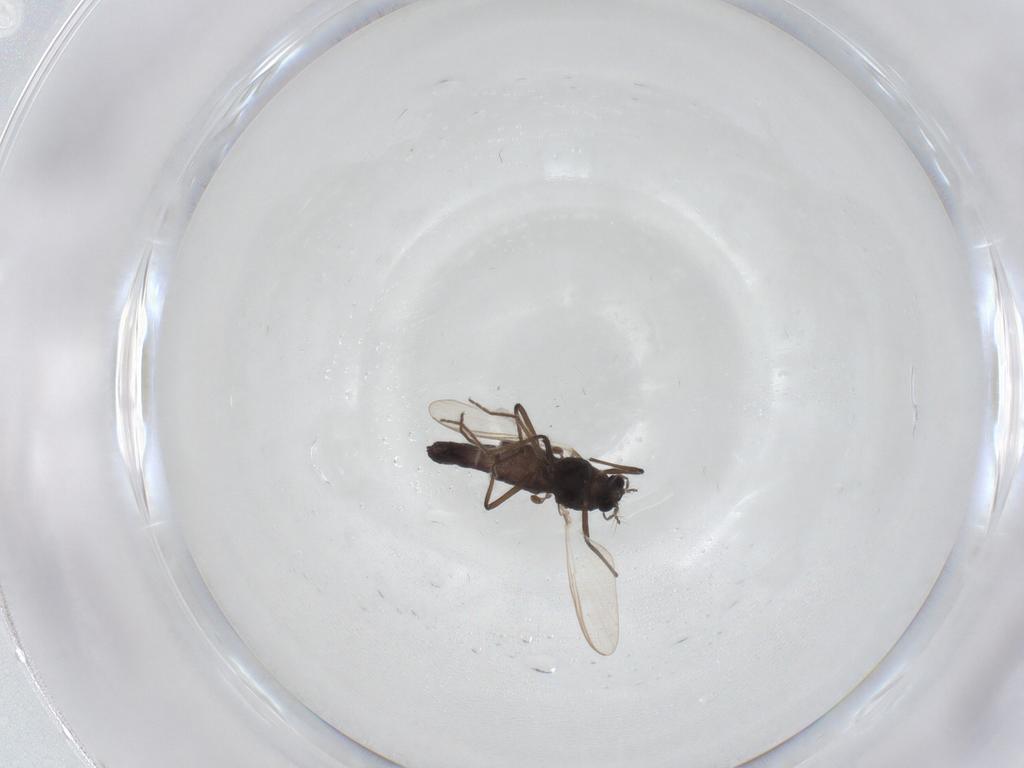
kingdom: Animalia
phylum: Arthropoda
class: Insecta
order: Diptera
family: Chironomidae
